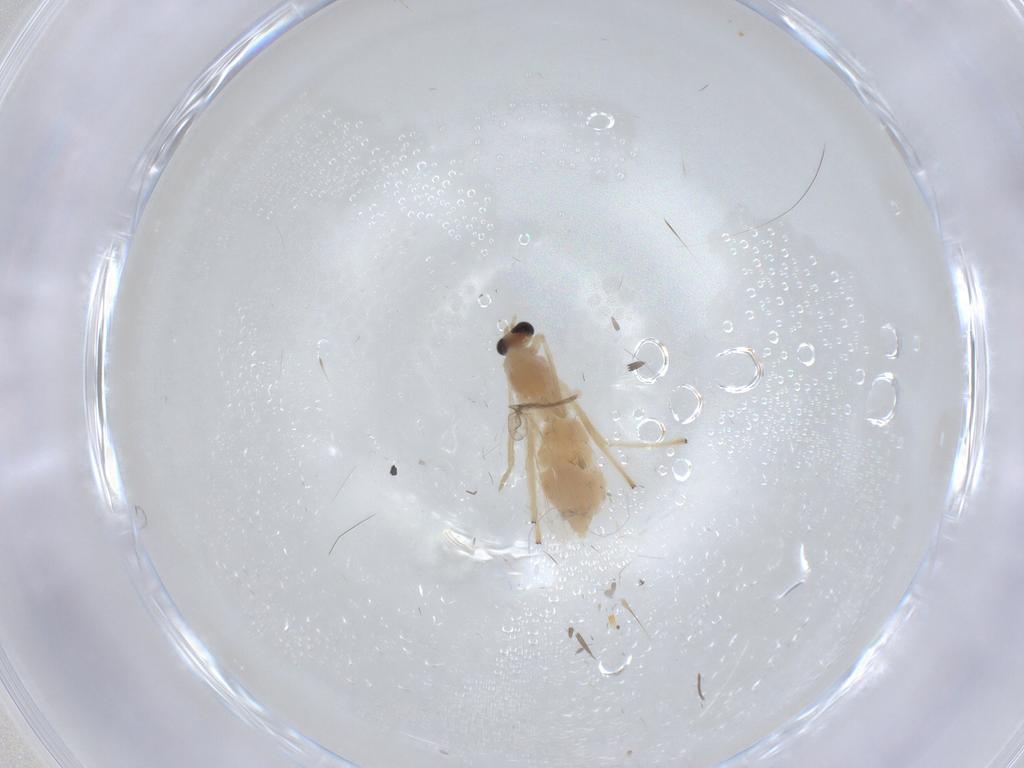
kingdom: Animalia
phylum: Arthropoda
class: Insecta
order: Diptera
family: Chironomidae
